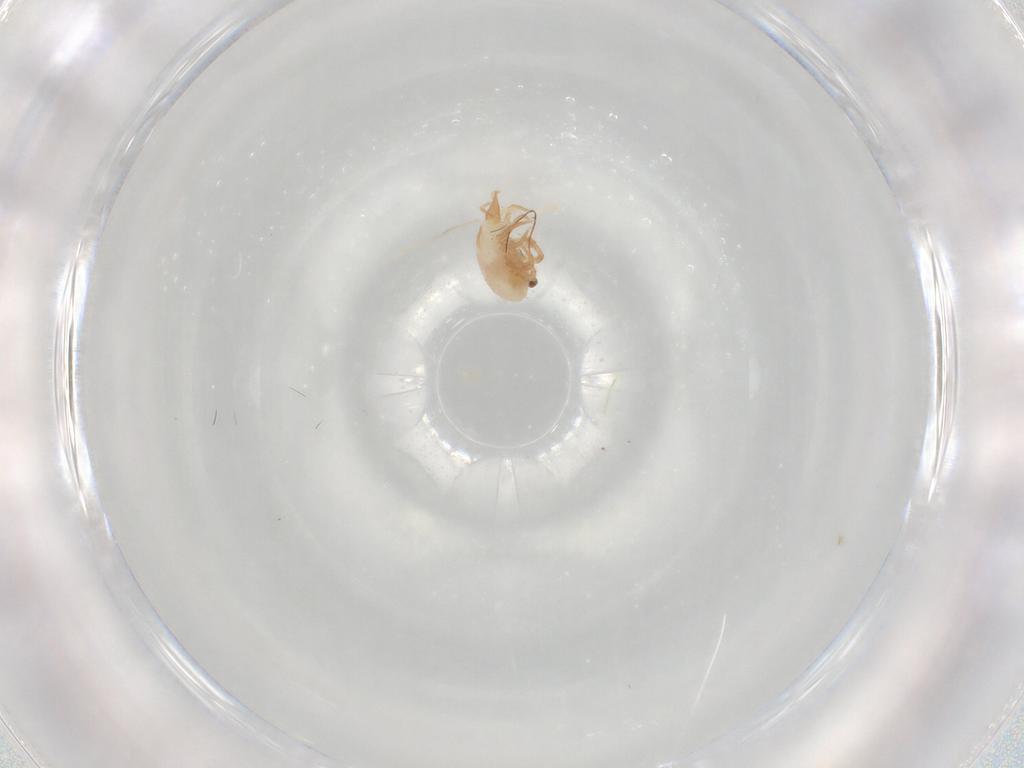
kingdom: Animalia
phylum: Arthropoda
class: Arachnida
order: Trombidiformes
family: Bdellidae
